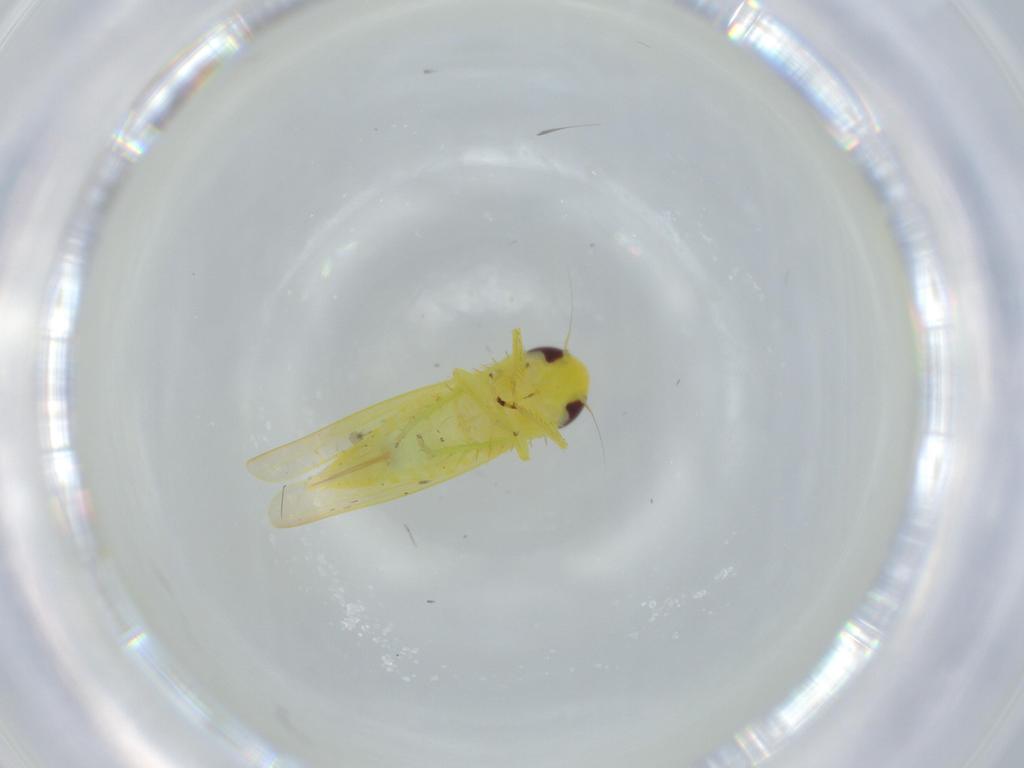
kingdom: Animalia
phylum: Arthropoda
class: Insecta
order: Hemiptera
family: Cicadellidae
